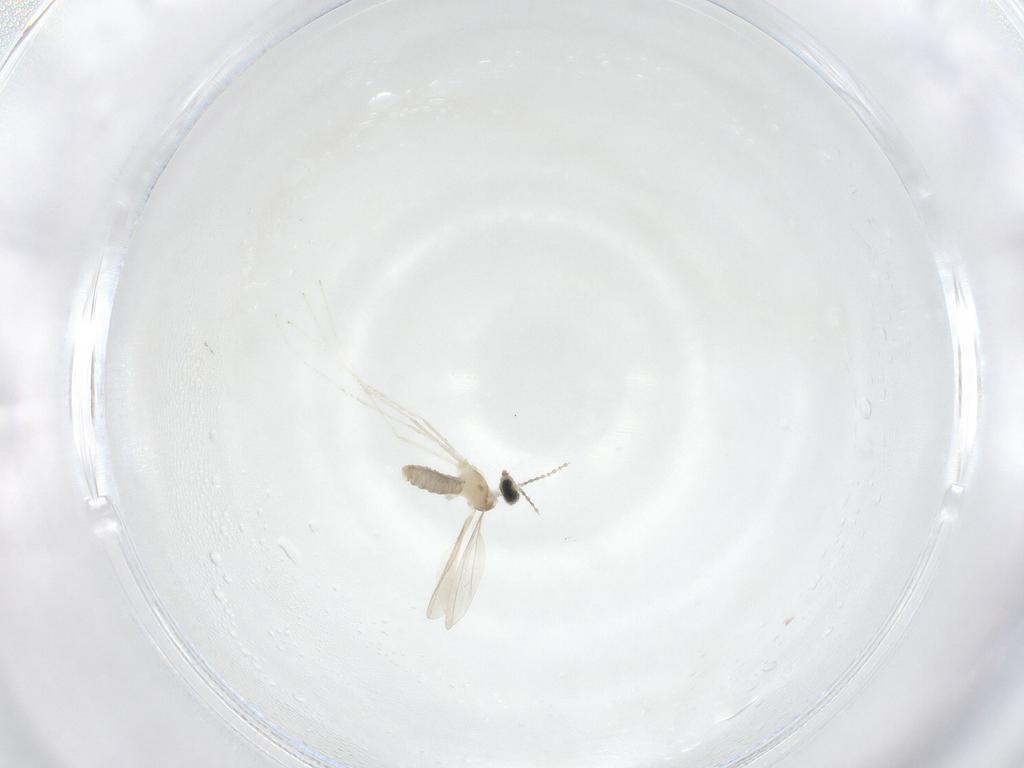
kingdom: Animalia
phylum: Arthropoda
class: Insecta
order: Diptera
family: Cecidomyiidae
